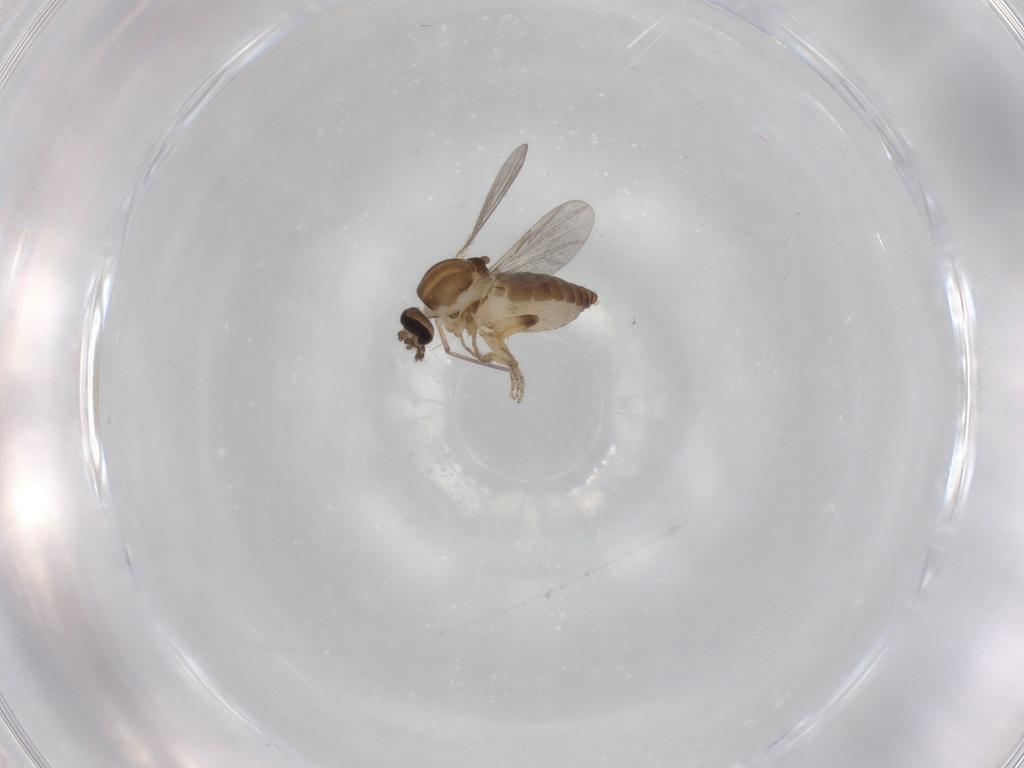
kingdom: Animalia
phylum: Arthropoda
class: Insecta
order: Diptera
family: Ceratopogonidae
